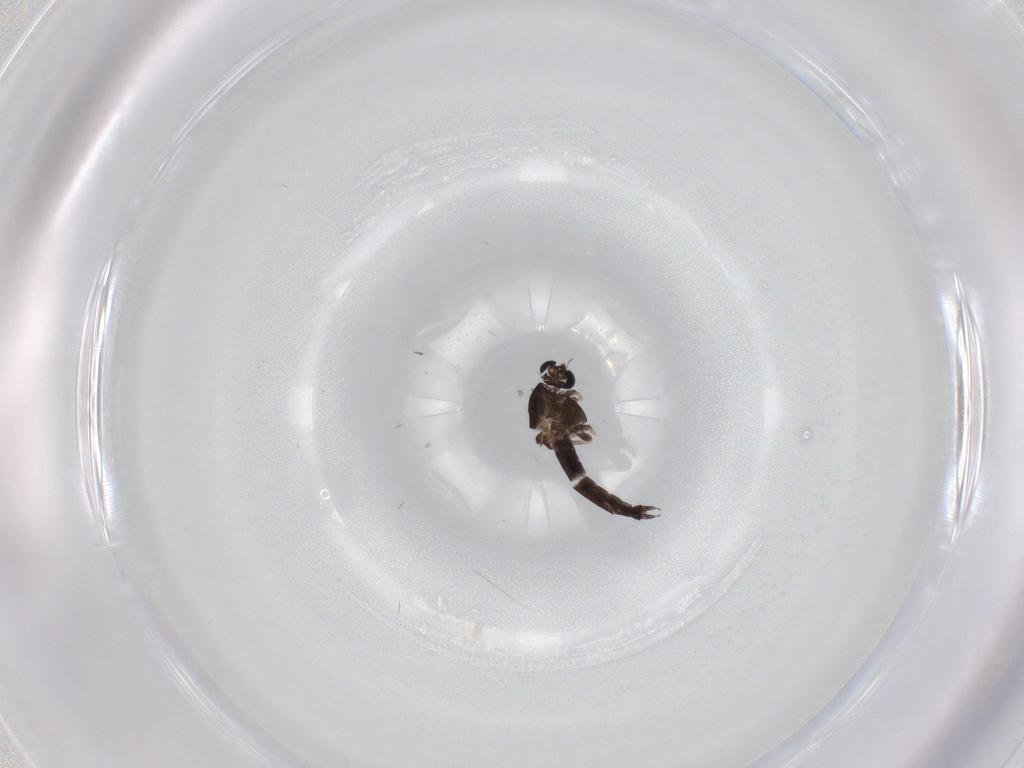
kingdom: Animalia
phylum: Arthropoda
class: Insecta
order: Diptera
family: Chironomidae
